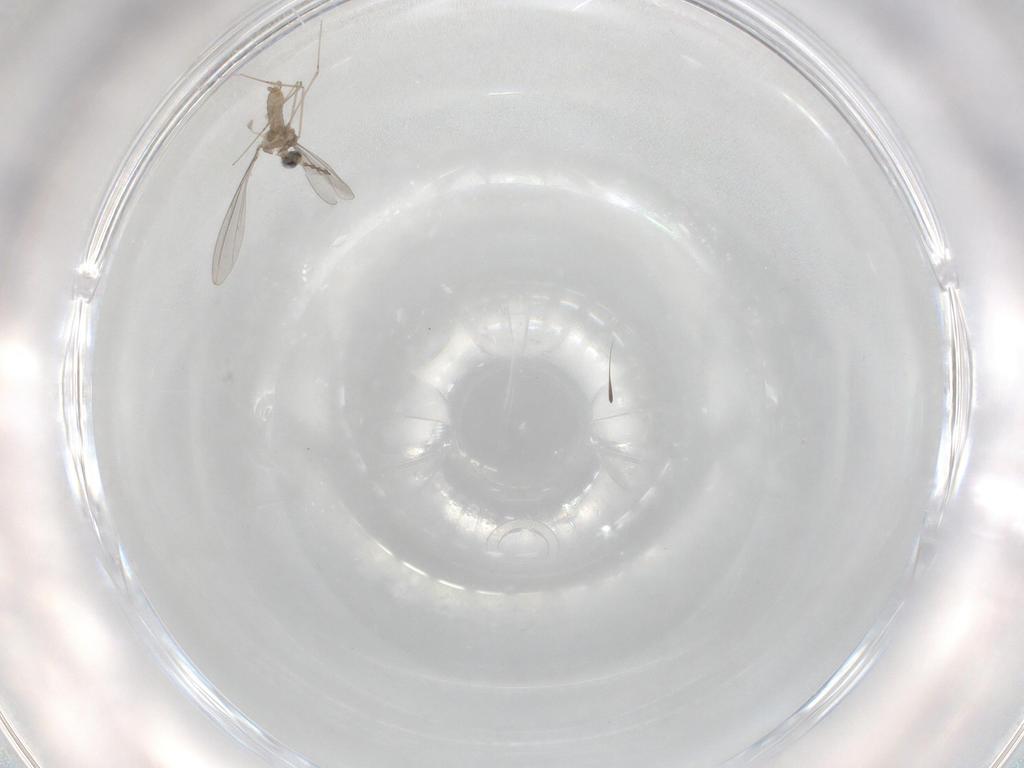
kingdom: Animalia
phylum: Arthropoda
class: Insecta
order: Diptera
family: Cecidomyiidae
